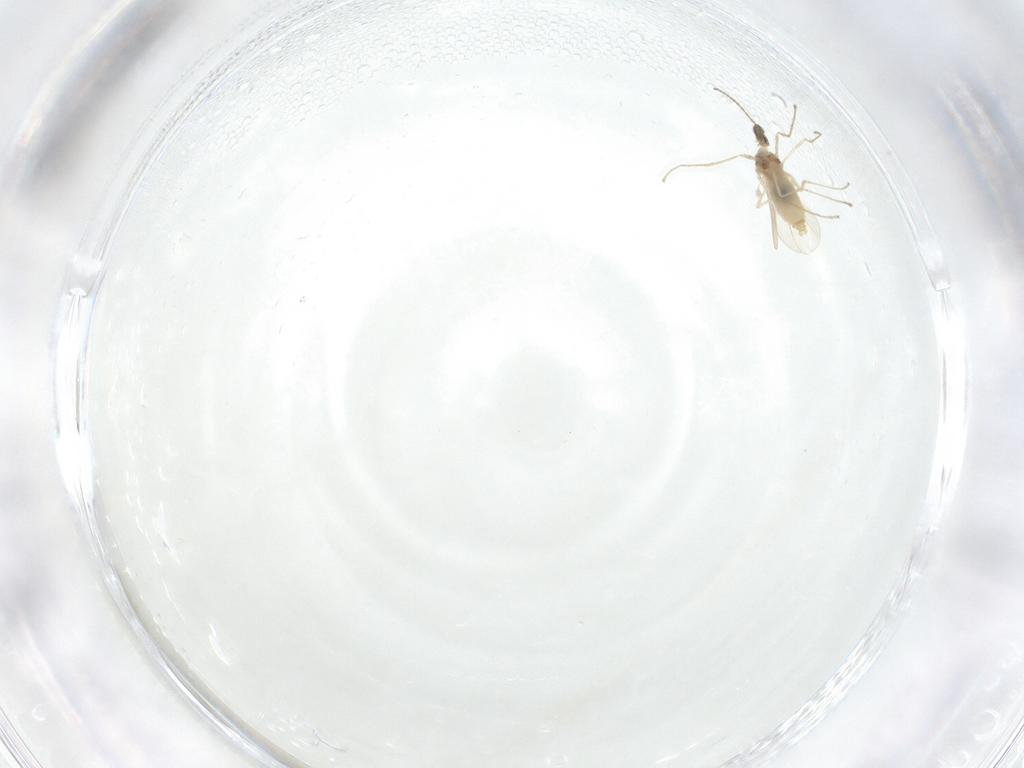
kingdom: Animalia
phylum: Arthropoda
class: Insecta
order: Diptera
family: Cecidomyiidae
